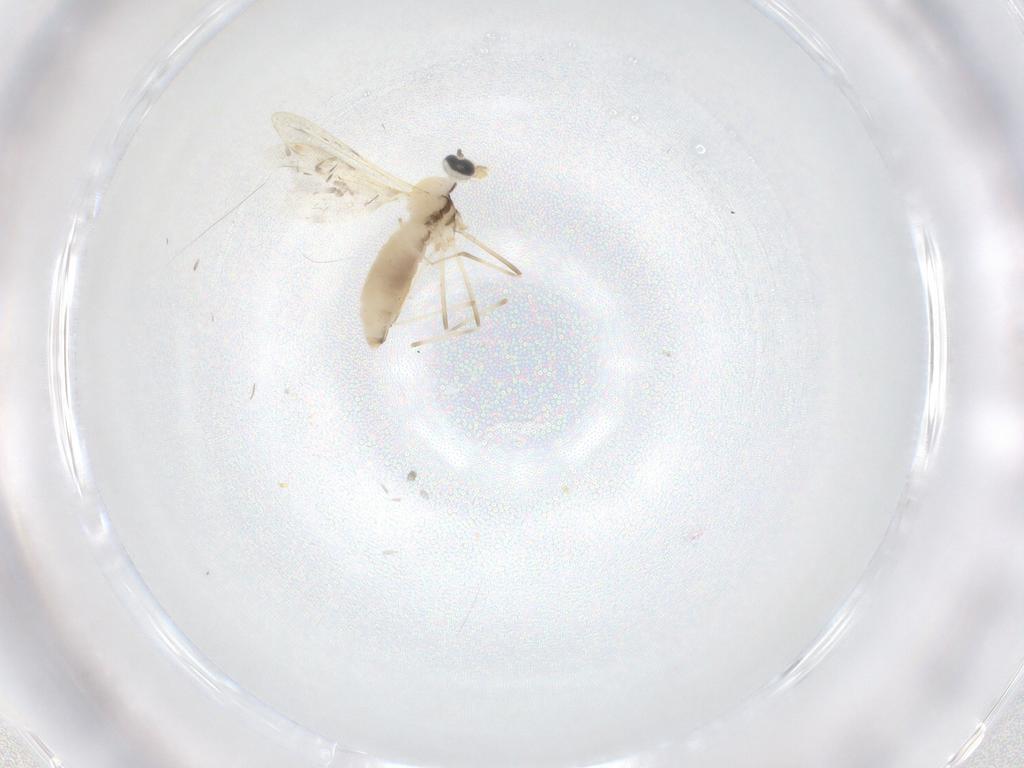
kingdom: Animalia
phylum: Arthropoda
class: Insecta
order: Diptera
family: Cecidomyiidae
